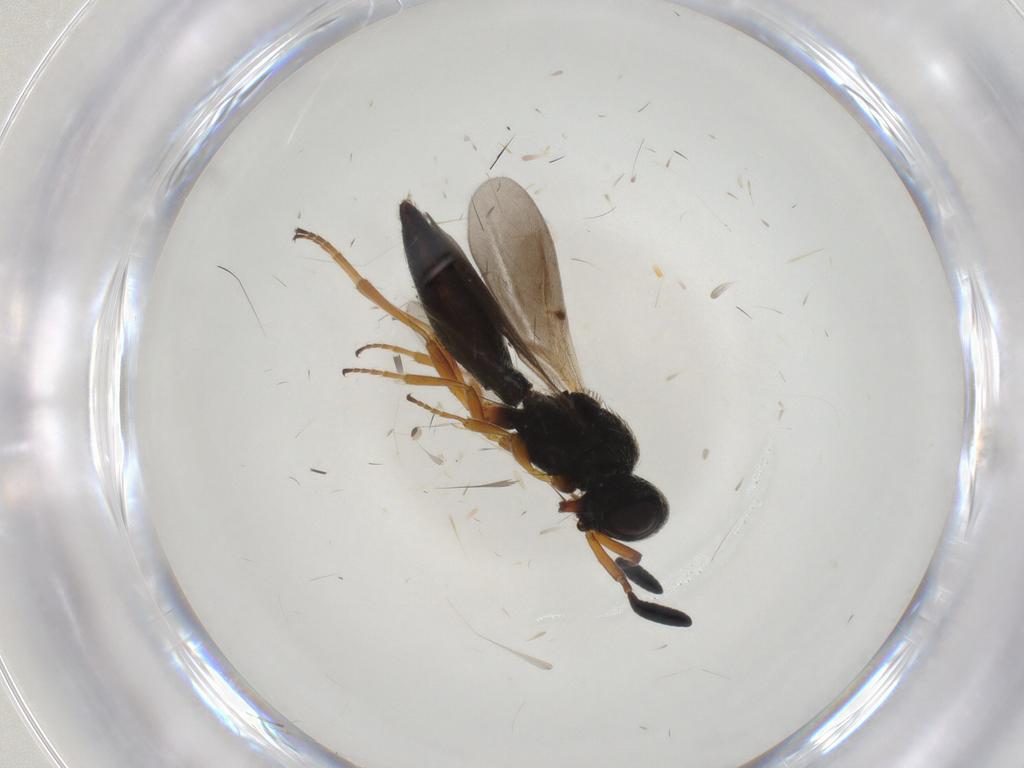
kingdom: Animalia
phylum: Arthropoda
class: Insecta
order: Hymenoptera
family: Scelionidae
